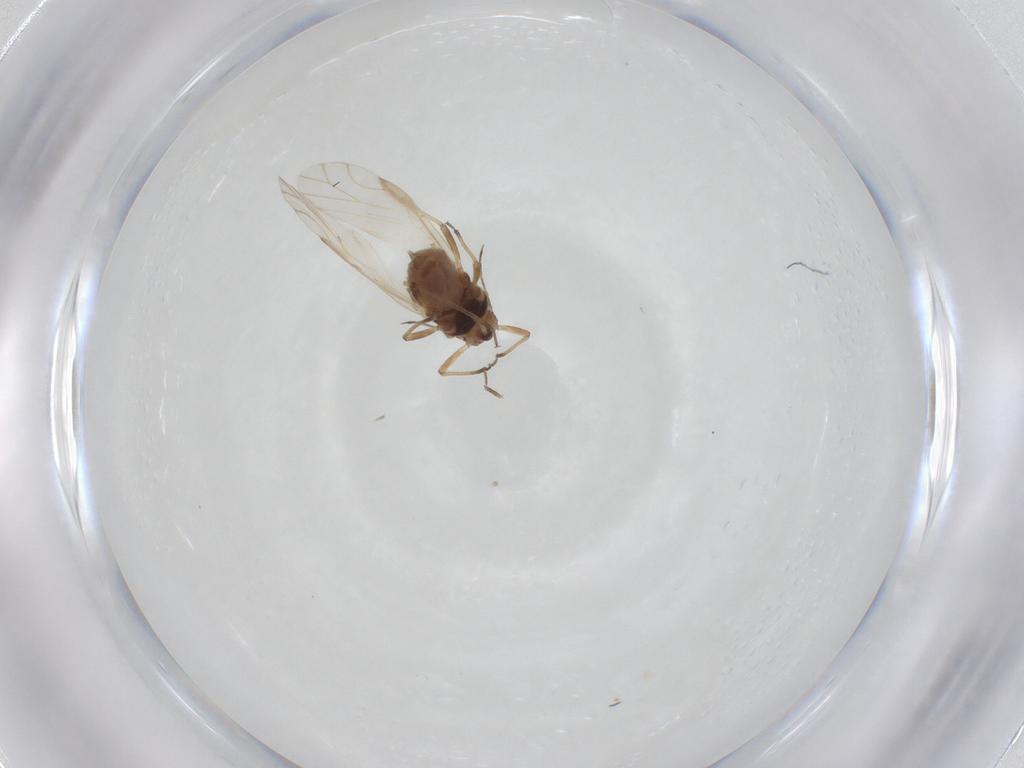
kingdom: Animalia
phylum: Arthropoda
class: Insecta
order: Hemiptera
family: Aphididae
